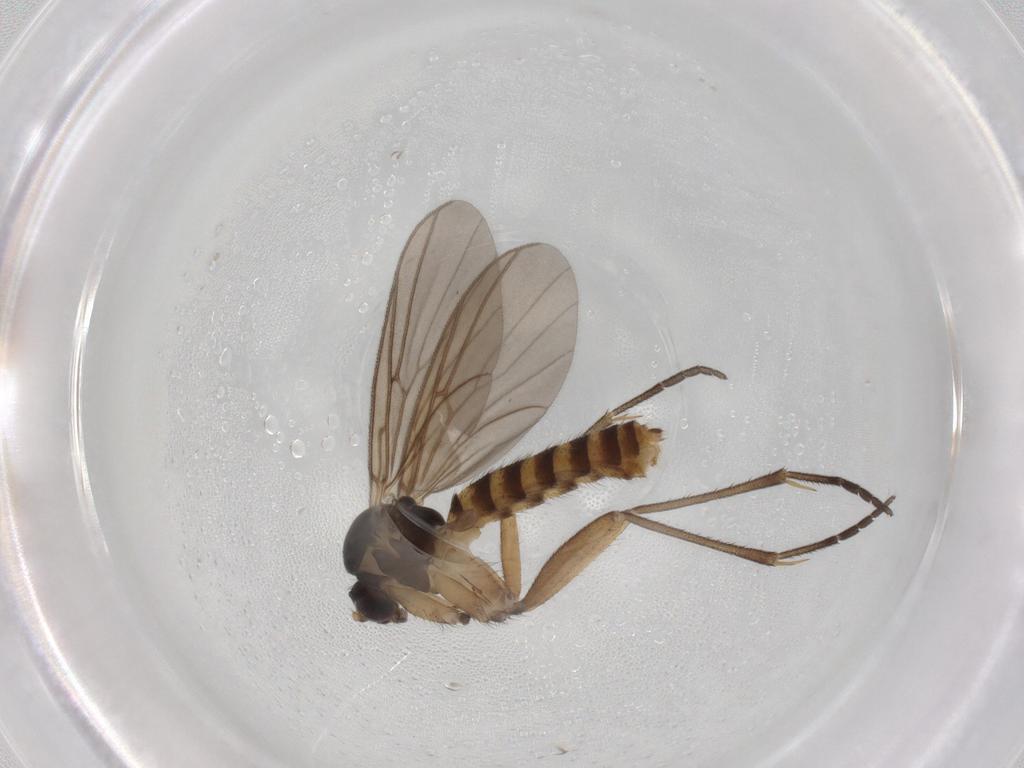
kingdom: Animalia
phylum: Arthropoda
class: Insecta
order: Diptera
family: Mycetophilidae
